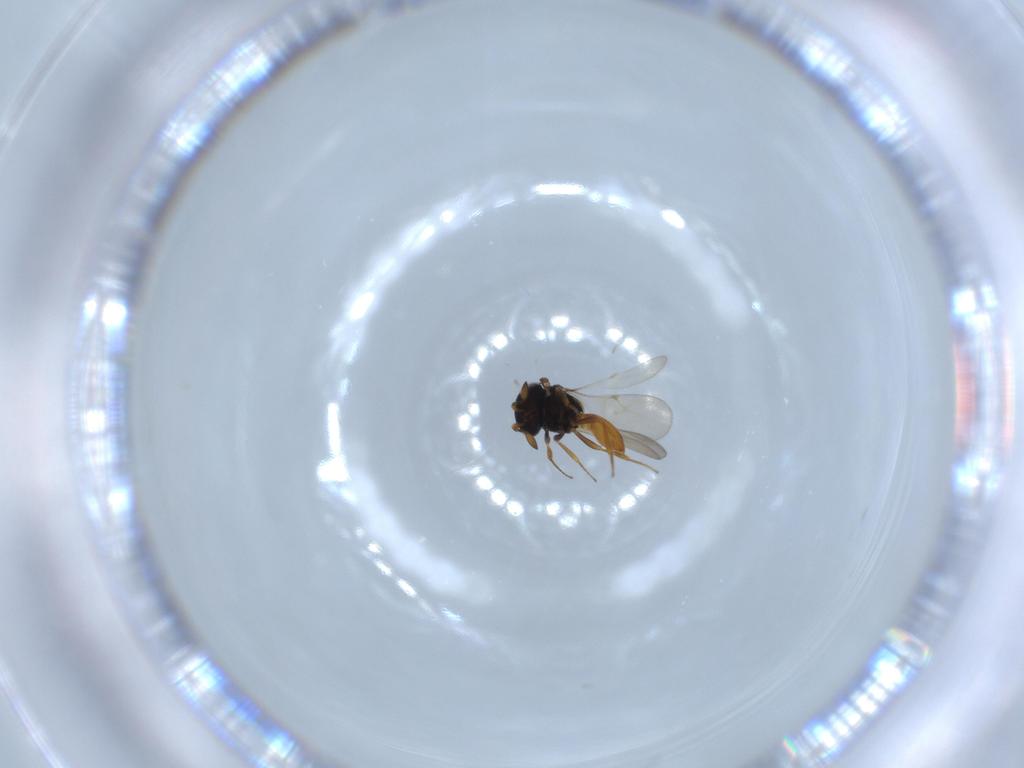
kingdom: Animalia
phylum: Arthropoda
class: Insecta
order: Hymenoptera
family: Scelionidae
